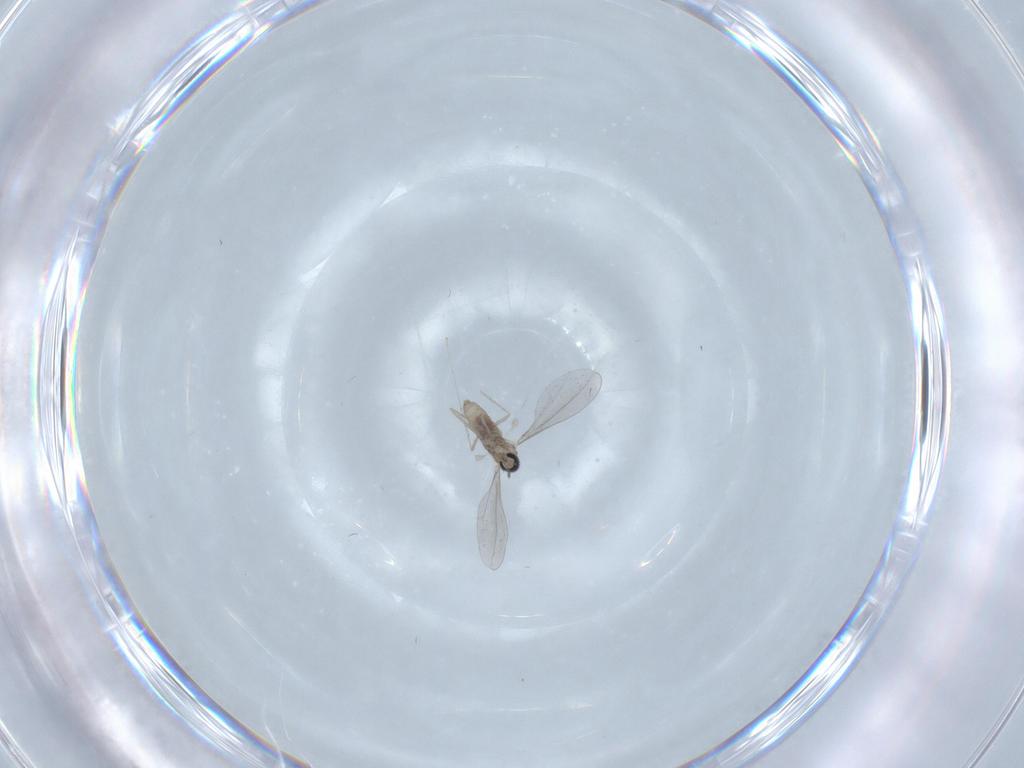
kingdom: Animalia
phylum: Arthropoda
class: Insecta
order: Diptera
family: Cecidomyiidae
